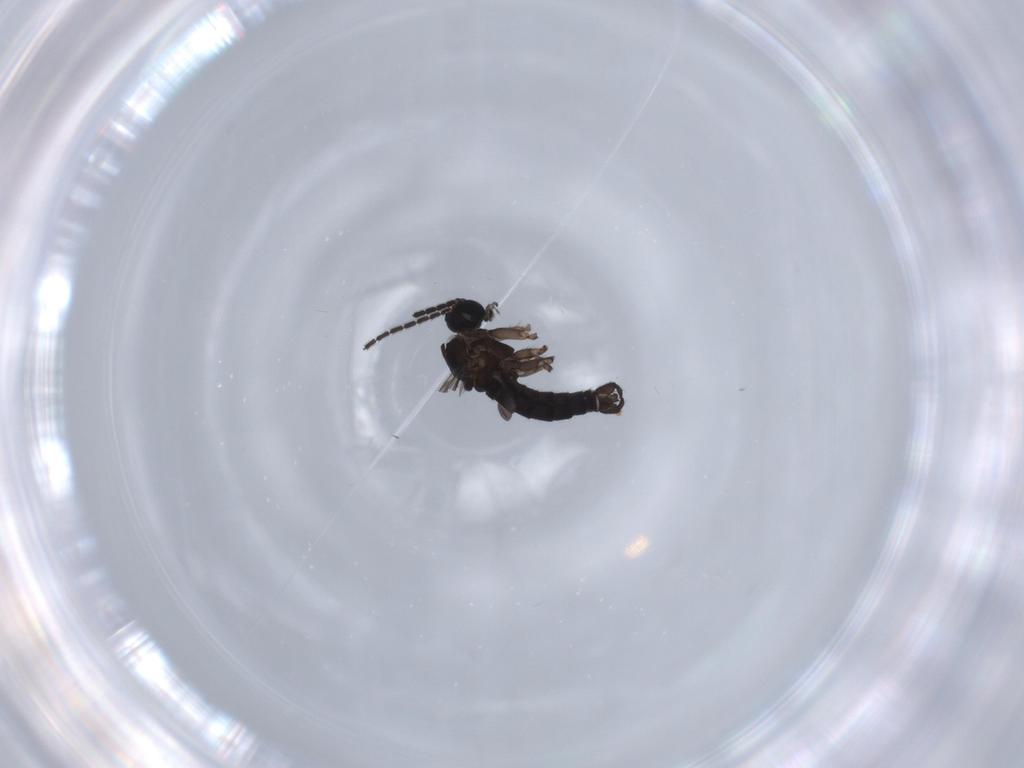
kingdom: Animalia
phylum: Arthropoda
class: Insecta
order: Diptera
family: Sciaridae
